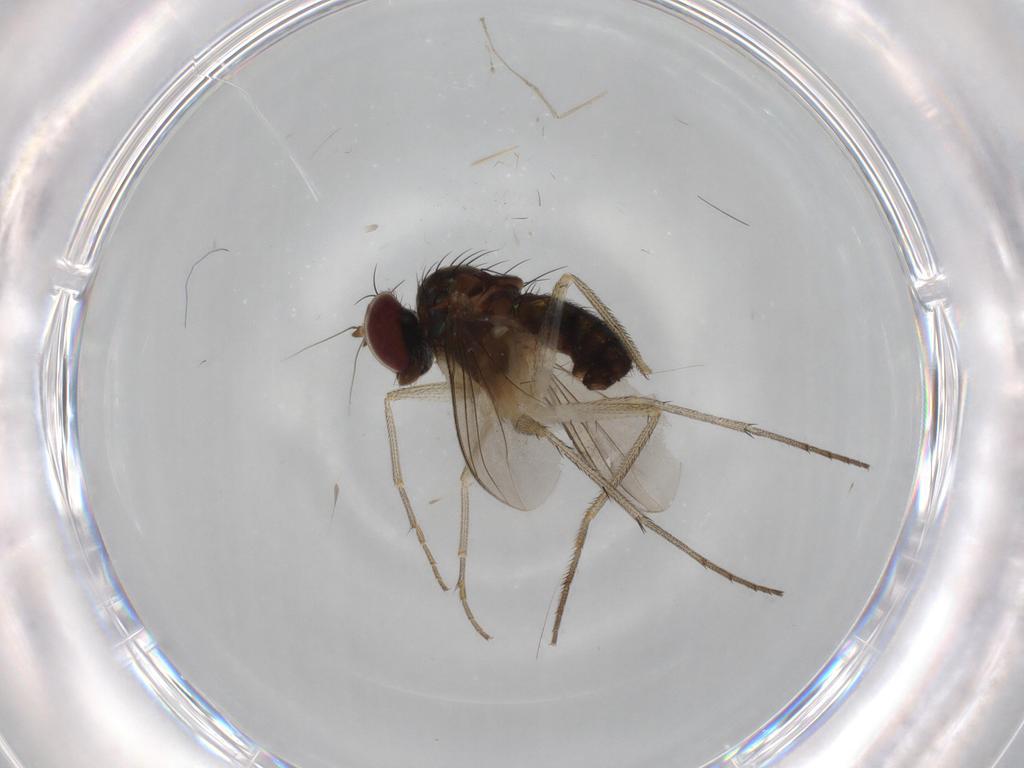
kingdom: Animalia
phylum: Arthropoda
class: Insecta
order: Diptera
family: Dolichopodidae
